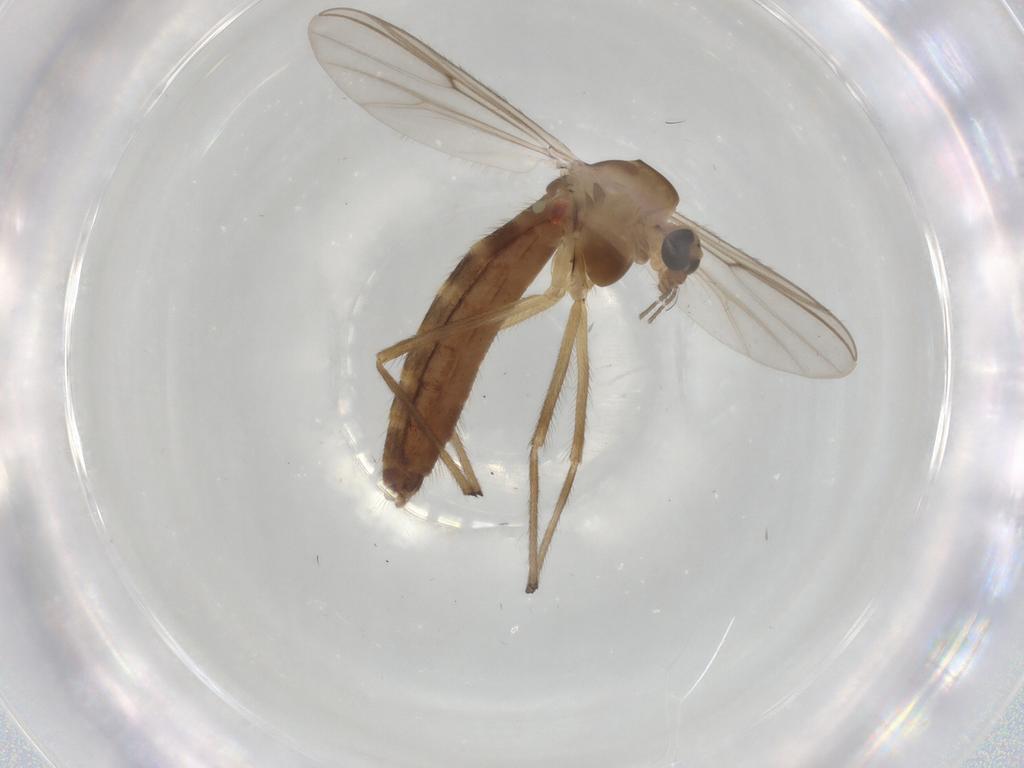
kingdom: Animalia
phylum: Arthropoda
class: Insecta
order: Diptera
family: Chironomidae
